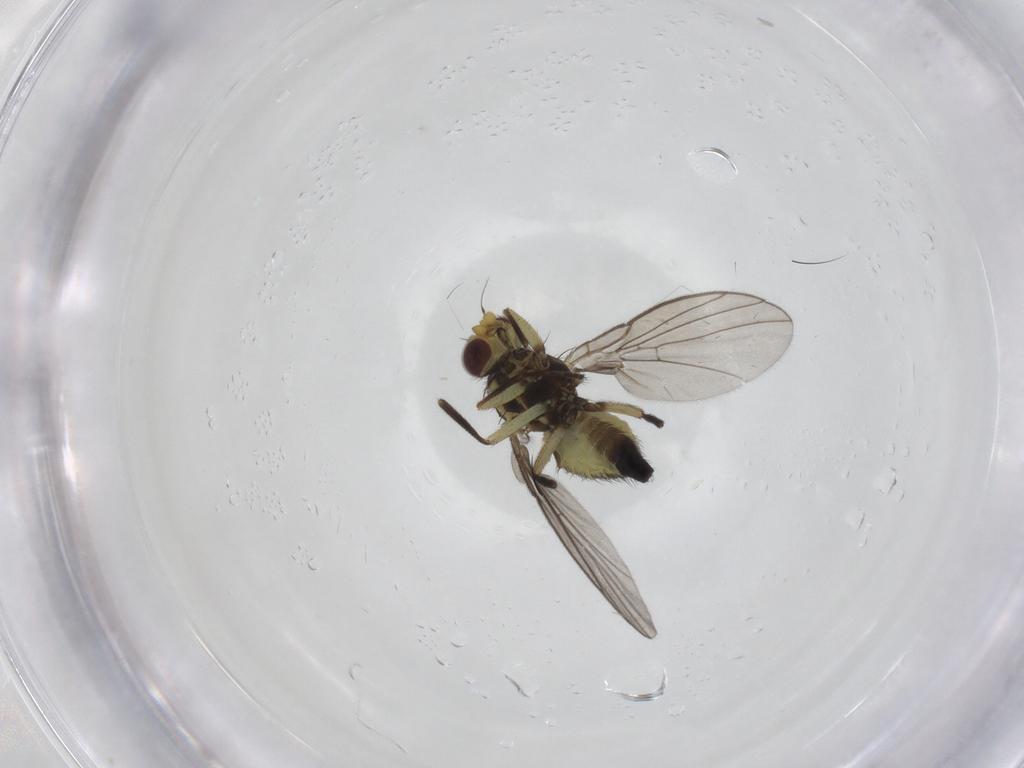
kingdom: Animalia
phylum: Arthropoda
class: Insecta
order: Diptera
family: Agromyzidae
